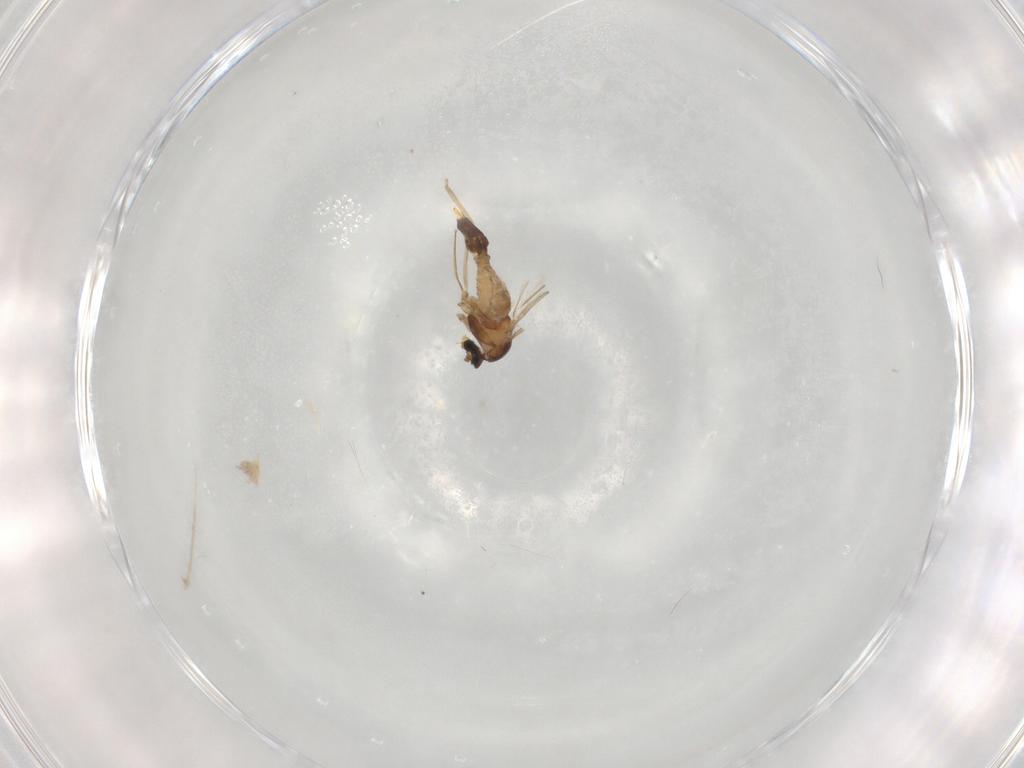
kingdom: Animalia
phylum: Arthropoda
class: Insecta
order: Diptera
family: Cecidomyiidae
